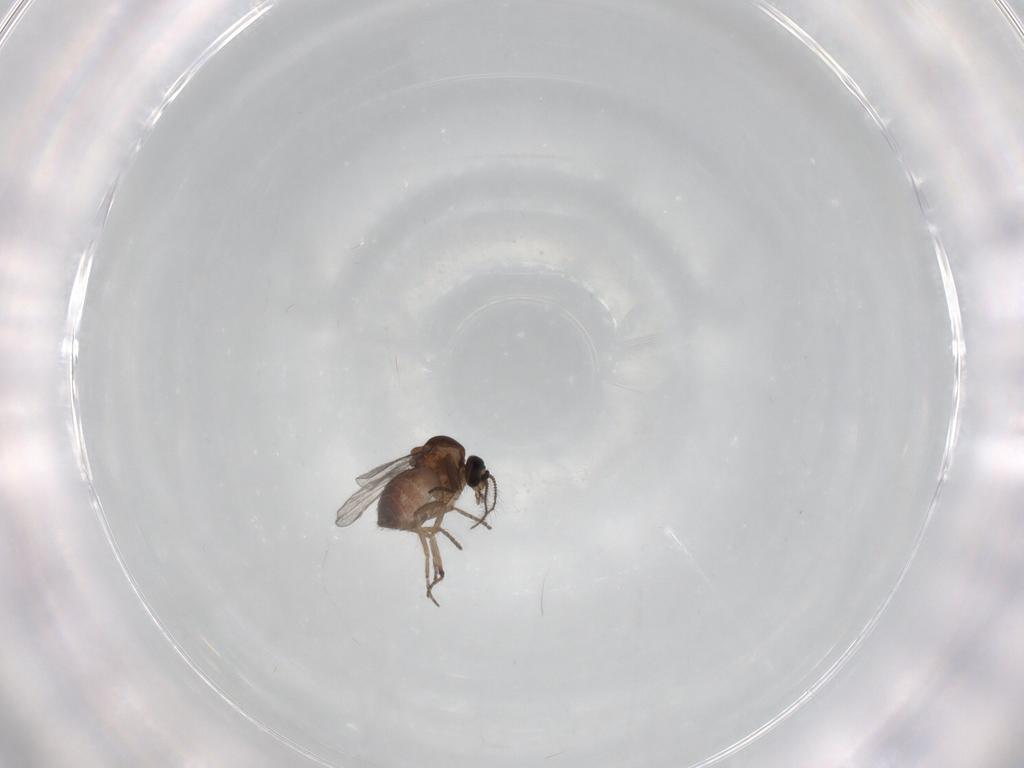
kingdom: Animalia
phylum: Arthropoda
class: Insecta
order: Diptera
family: Ceratopogonidae
